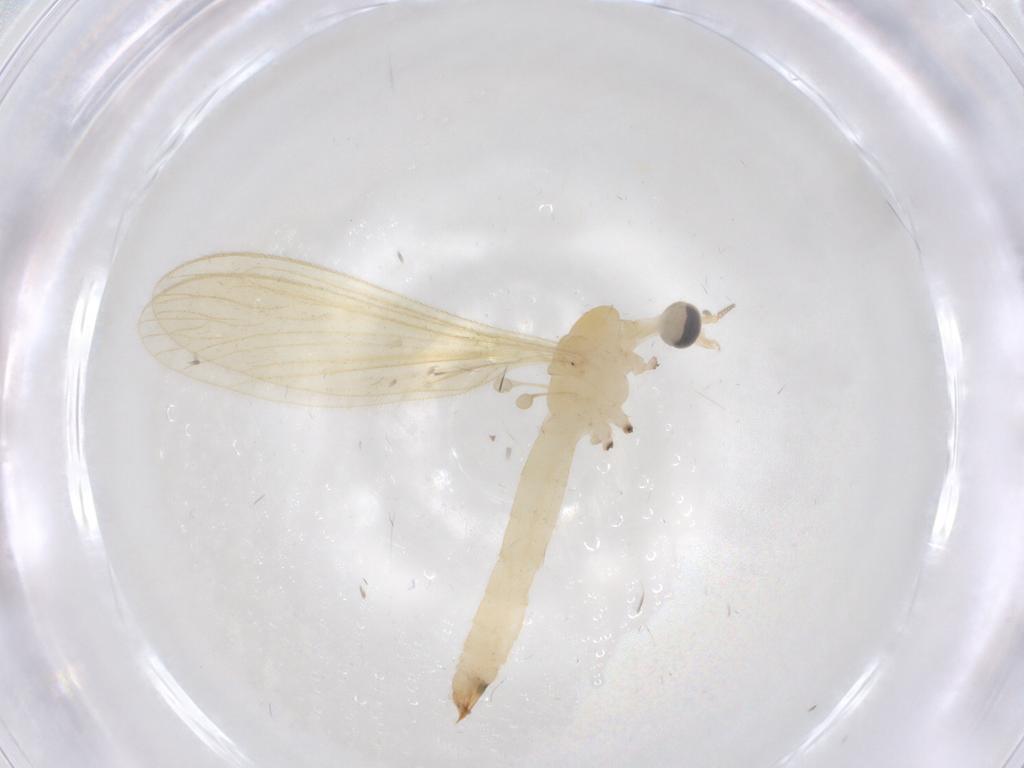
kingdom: Animalia
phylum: Arthropoda
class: Insecta
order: Diptera
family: Limoniidae
